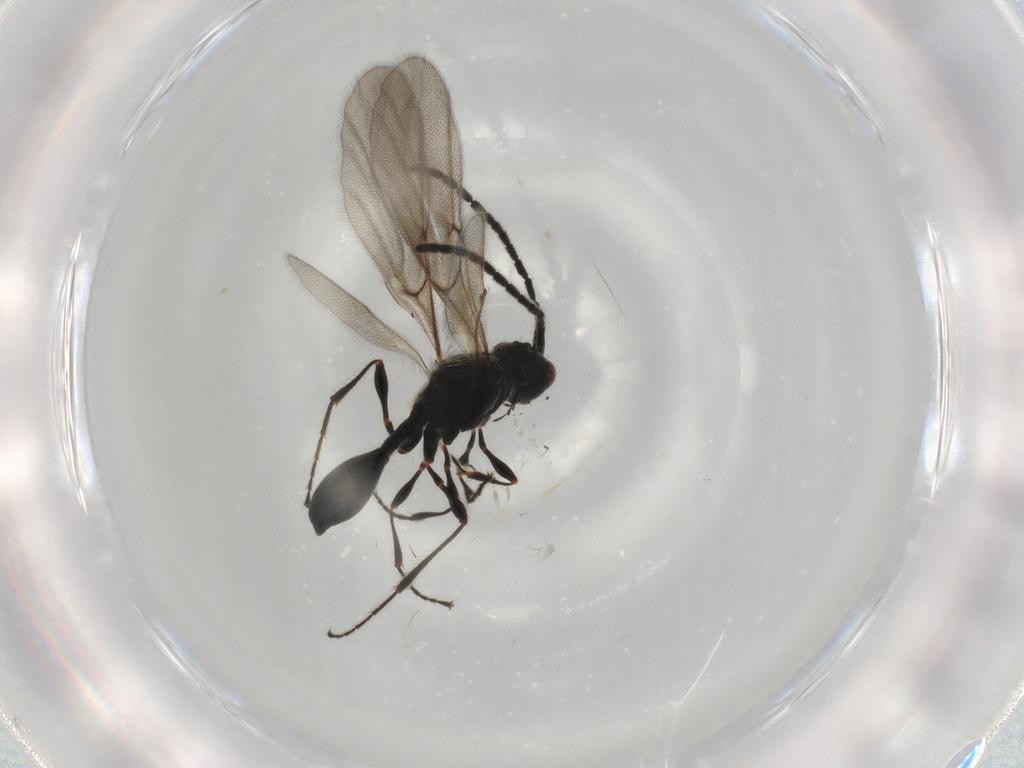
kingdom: Animalia
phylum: Arthropoda
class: Insecta
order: Hymenoptera
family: Diapriidae
